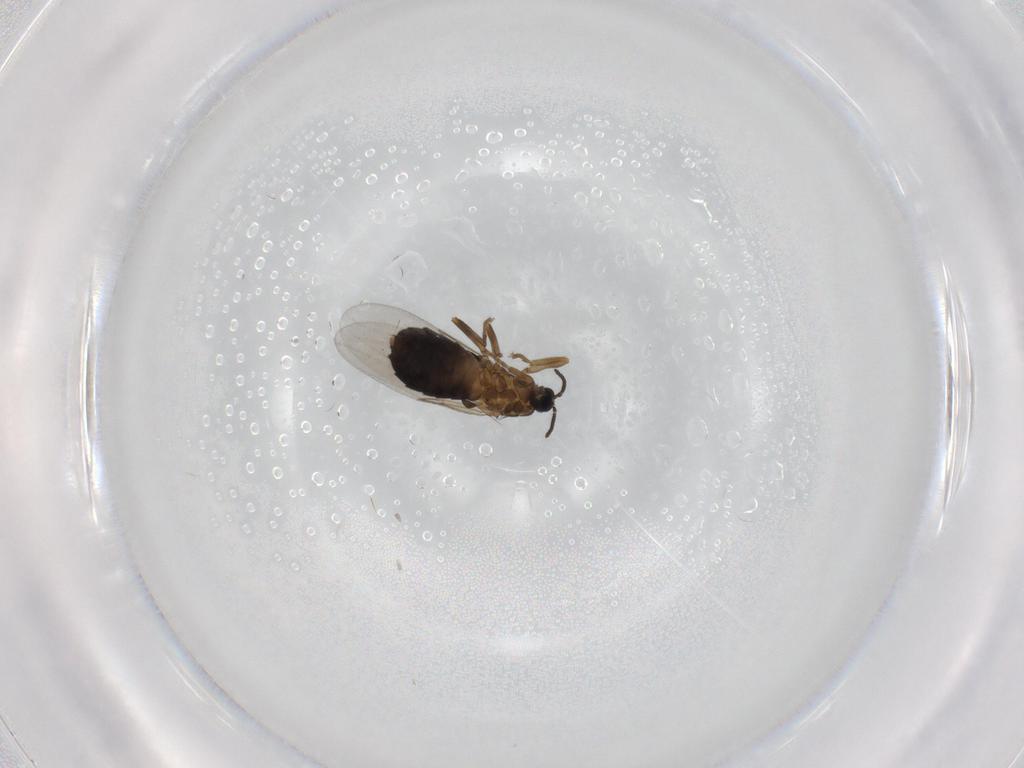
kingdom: Animalia
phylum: Arthropoda
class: Insecta
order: Diptera
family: Scatopsidae
